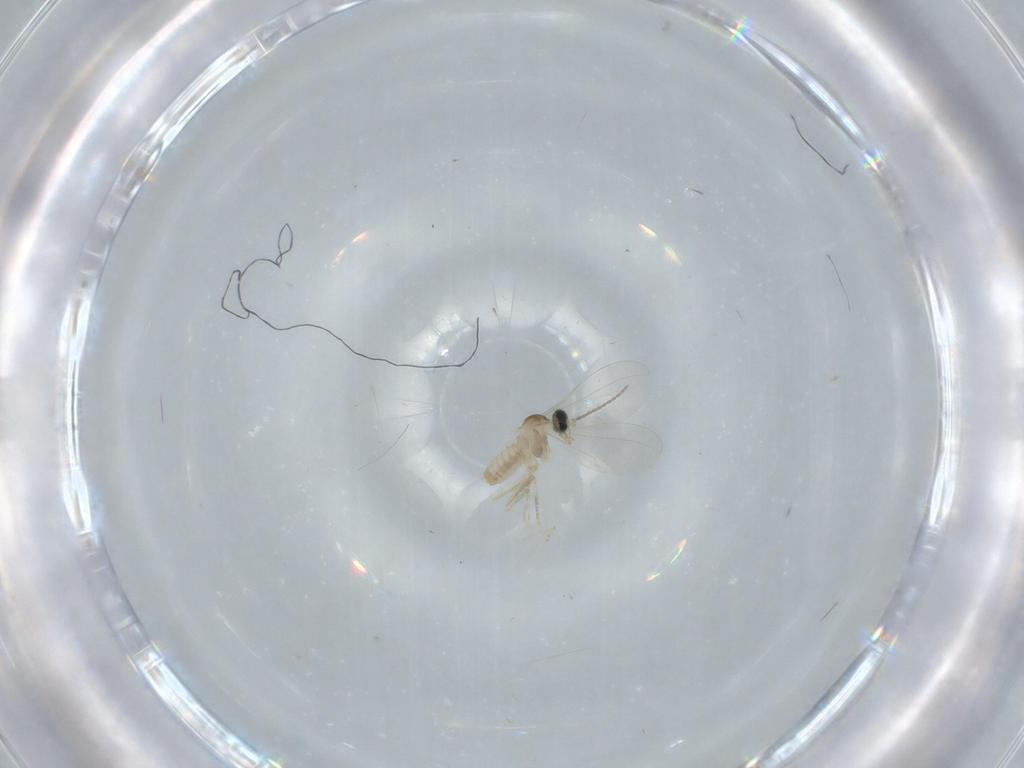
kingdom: Animalia
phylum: Arthropoda
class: Insecta
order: Diptera
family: Cecidomyiidae
